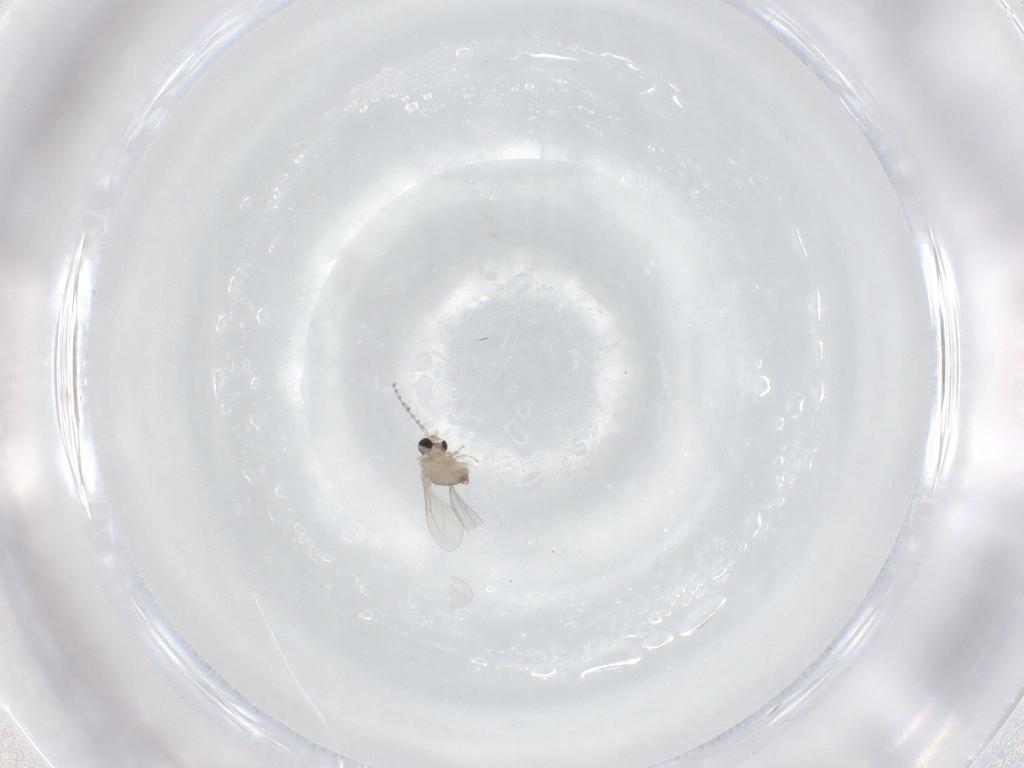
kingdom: Animalia
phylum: Arthropoda
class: Insecta
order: Diptera
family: Cecidomyiidae
